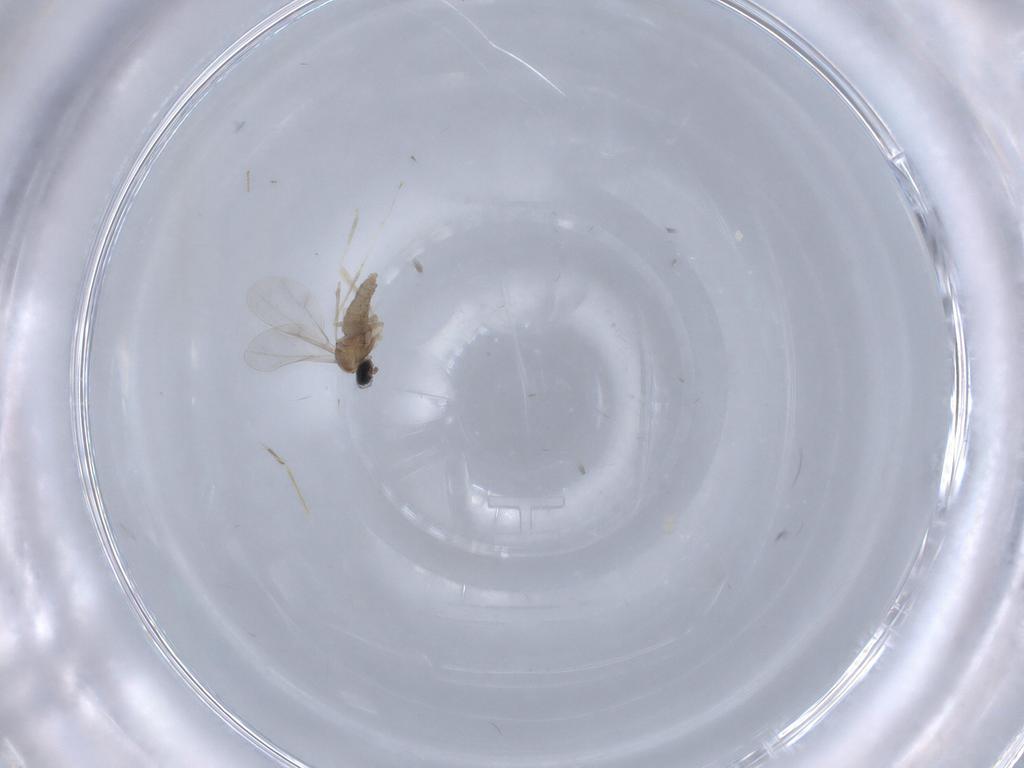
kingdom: Animalia
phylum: Arthropoda
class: Insecta
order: Diptera
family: Cecidomyiidae
